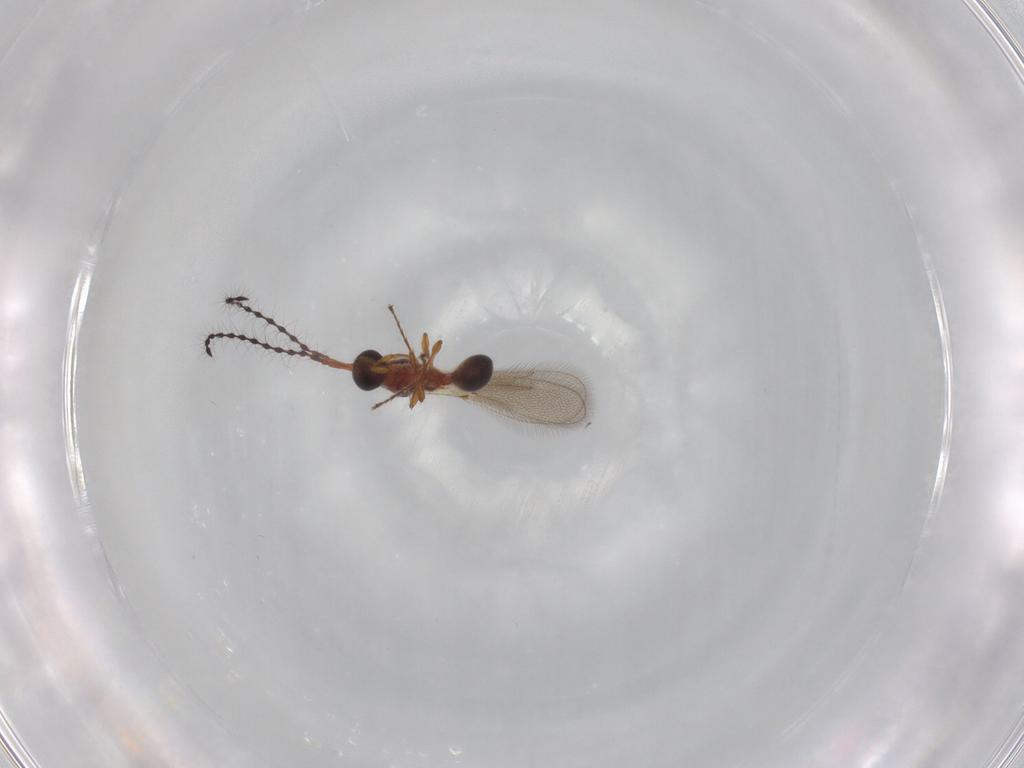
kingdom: Animalia
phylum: Arthropoda
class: Insecta
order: Hymenoptera
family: Diapriidae
